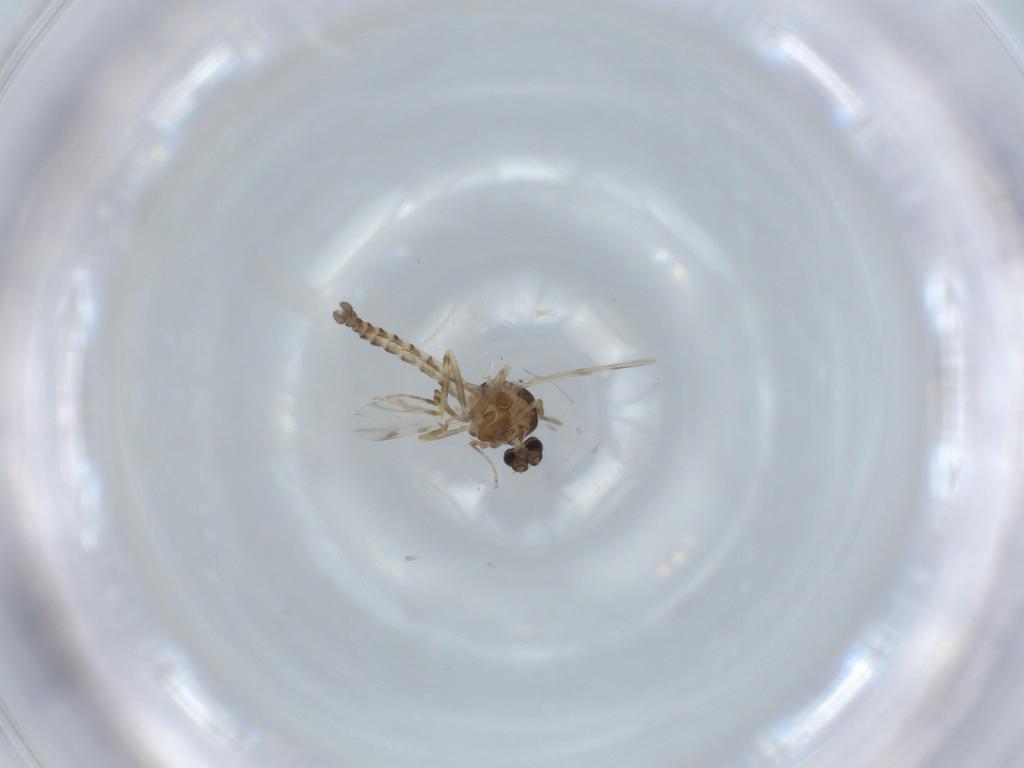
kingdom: Animalia
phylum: Arthropoda
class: Insecta
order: Diptera
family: Ceratopogonidae
